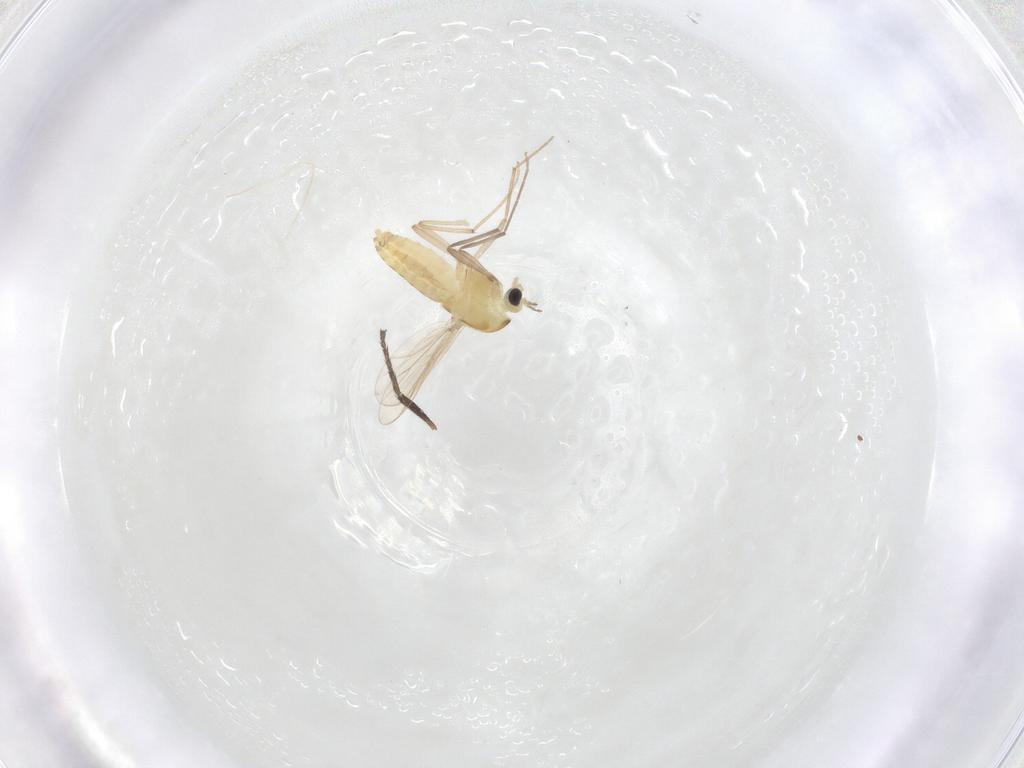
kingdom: Animalia
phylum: Arthropoda
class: Insecta
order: Diptera
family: Chironomidae
